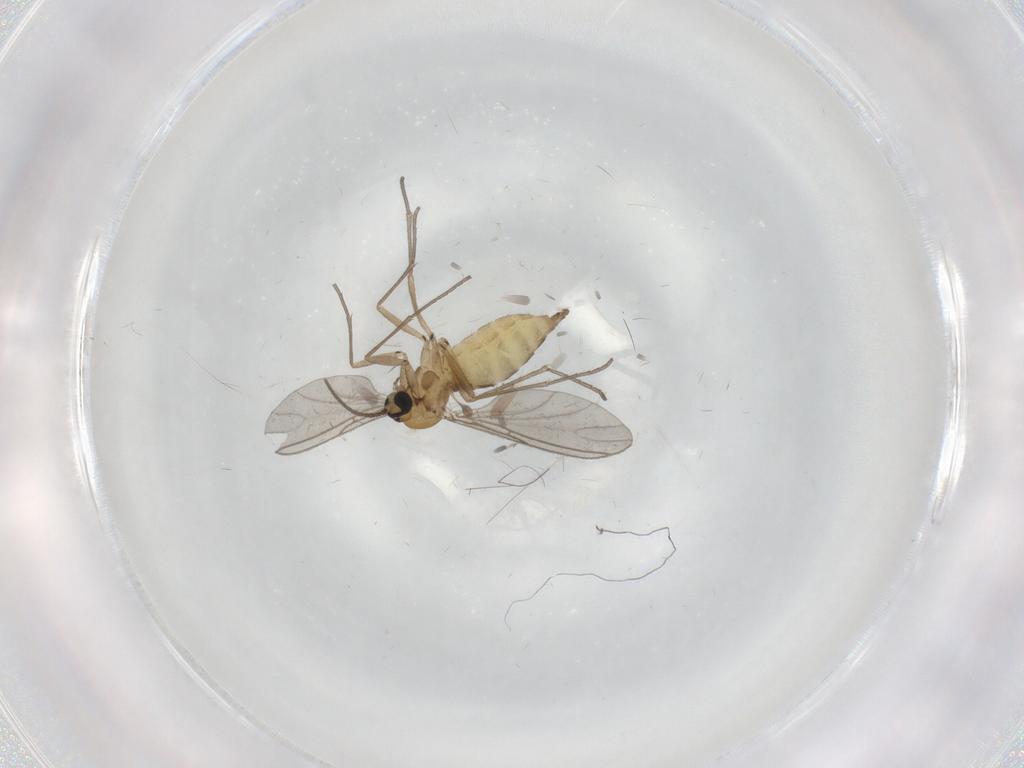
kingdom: Animalia
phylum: Arthropoda
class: Insecta
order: Diptera
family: Sciaridae
